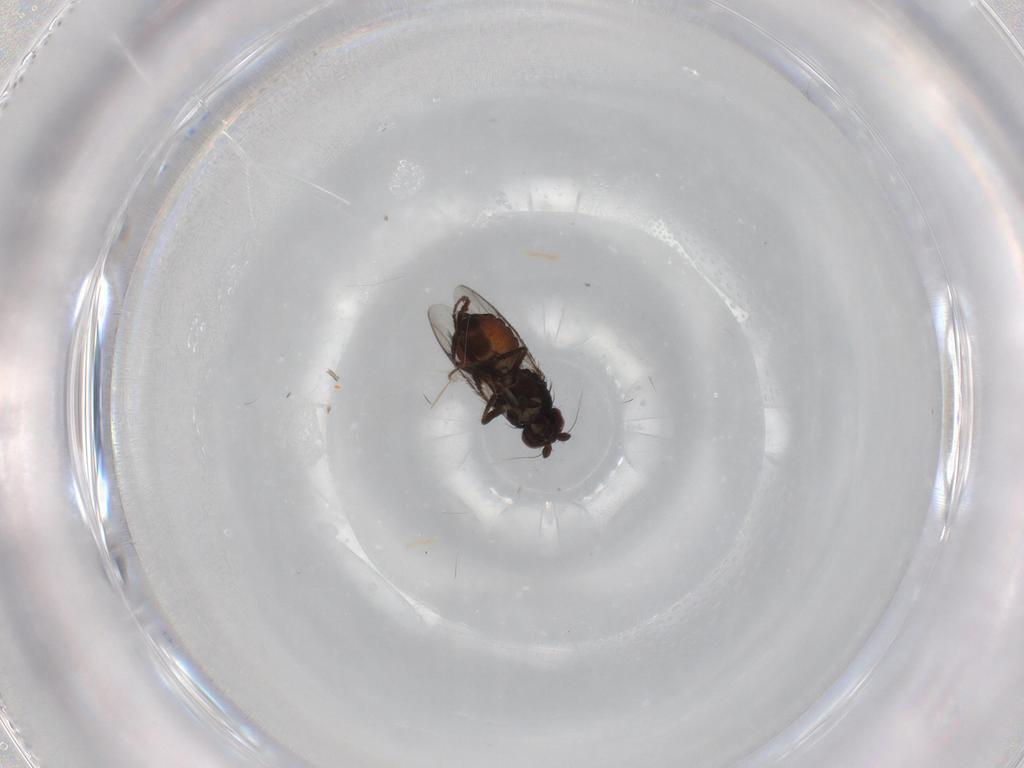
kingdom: Animalia
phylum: Arthropoda
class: Insecta
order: Diptera
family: Sphaeroceridae
